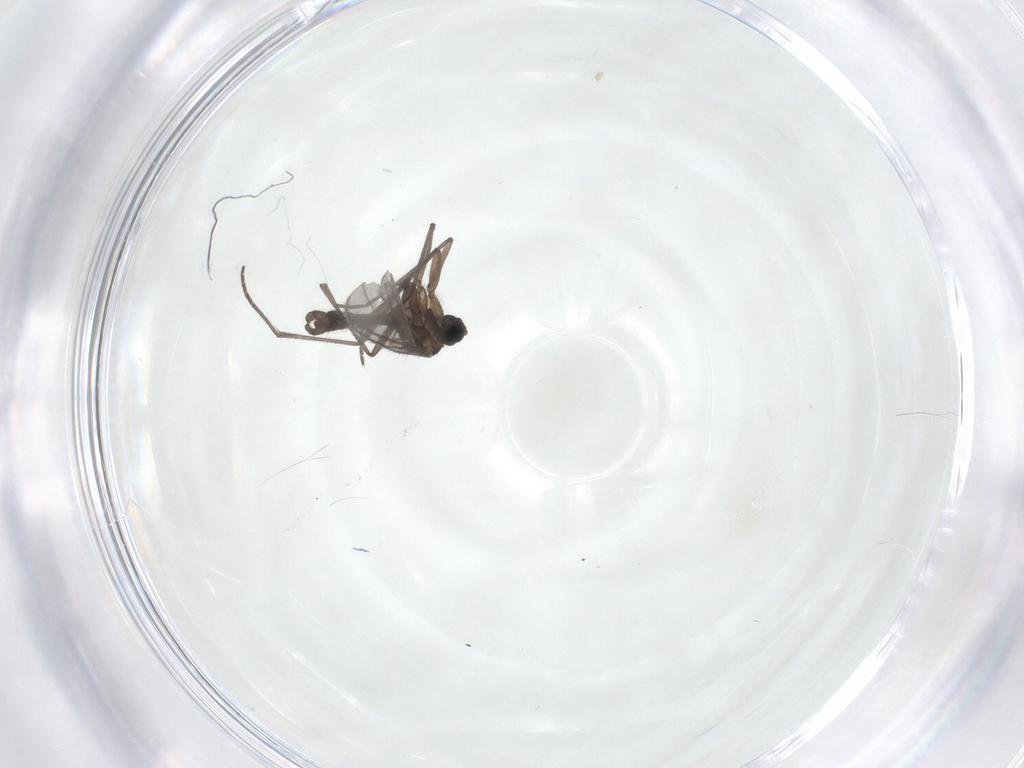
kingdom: Animalia
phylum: Arthropoda
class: Insecta
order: Diptera
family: Sciaridae
